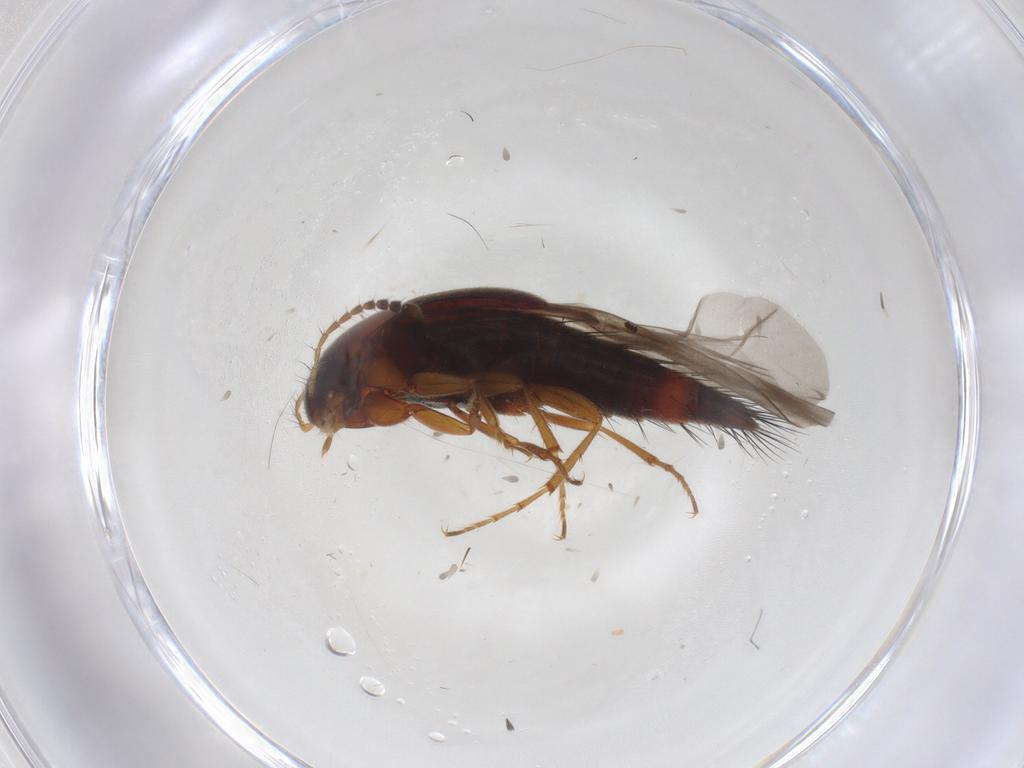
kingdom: Animalia
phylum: Arthropoda
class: Insecta
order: Coleoptera
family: Staphylinidae
